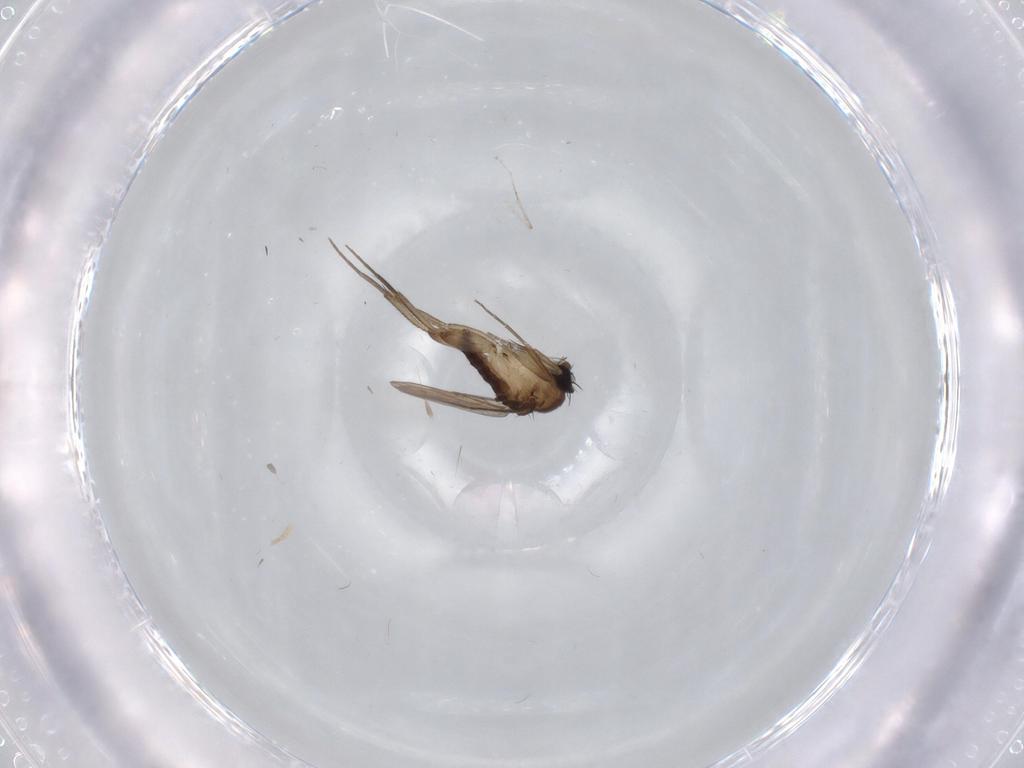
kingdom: Animalia
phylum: Arthropoda
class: Insecta
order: Diptera
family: Phoridae
